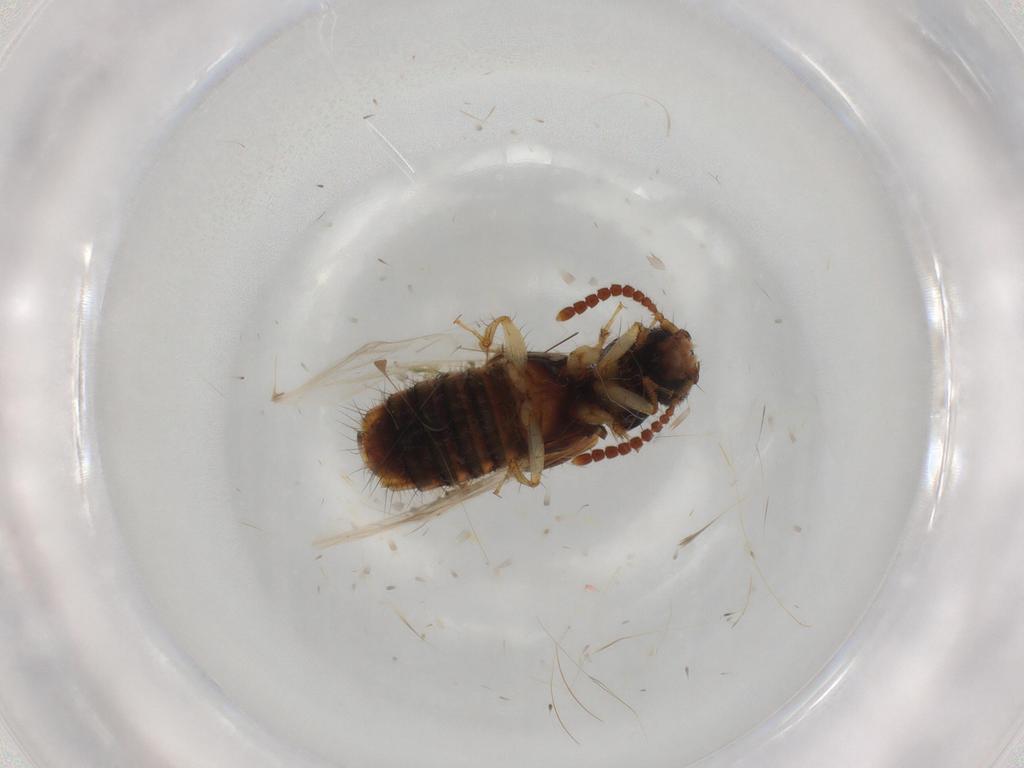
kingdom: Animalia
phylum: Arthropoda
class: Insecta
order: Coleoptera
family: Staphylinidae
